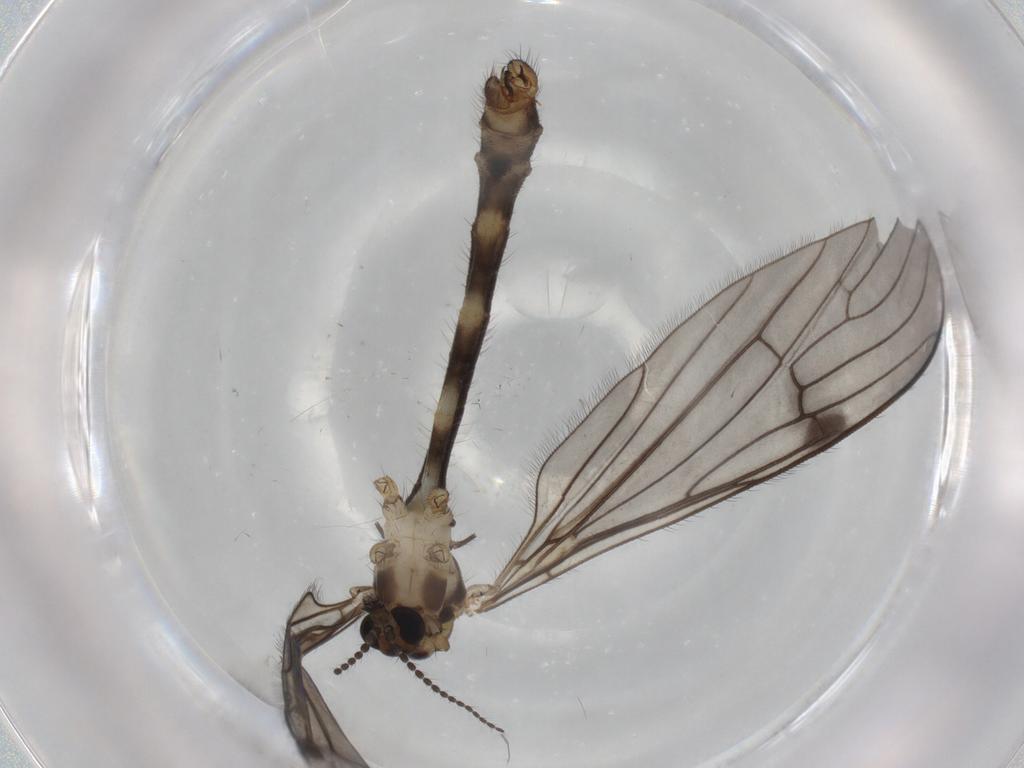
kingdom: Animalia
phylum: Arthropoda
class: Insecta
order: Diptera
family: Limoniidae
